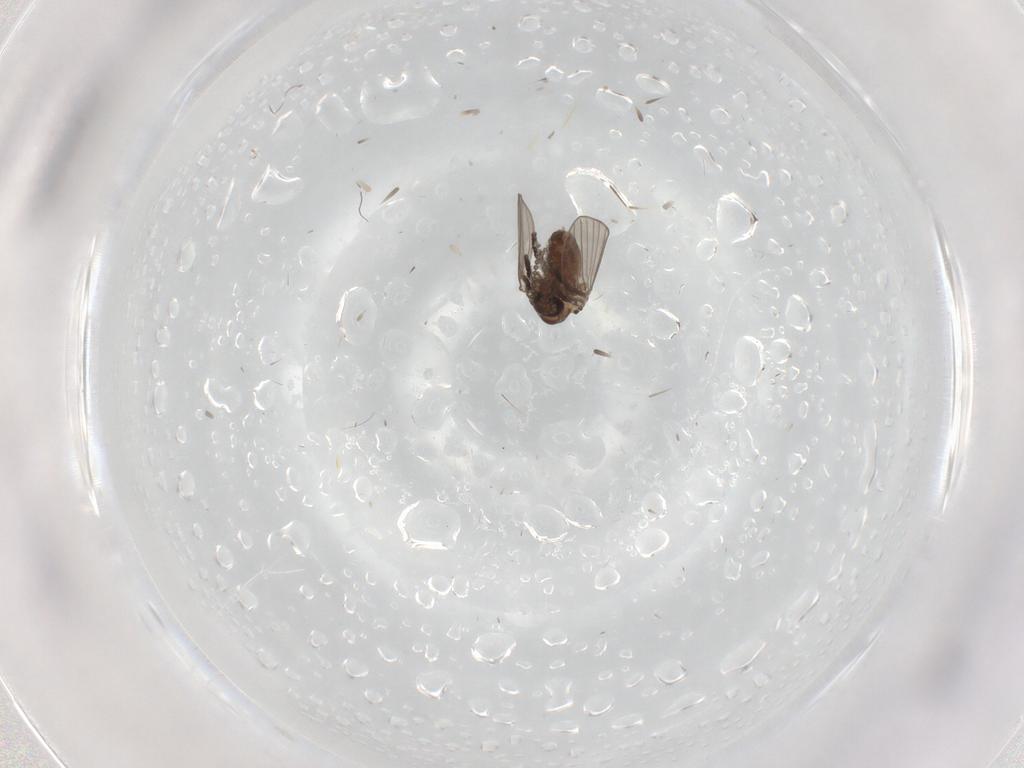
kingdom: Animalia
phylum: Arthropoda
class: Insecta
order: Diptera
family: Psychodidae
